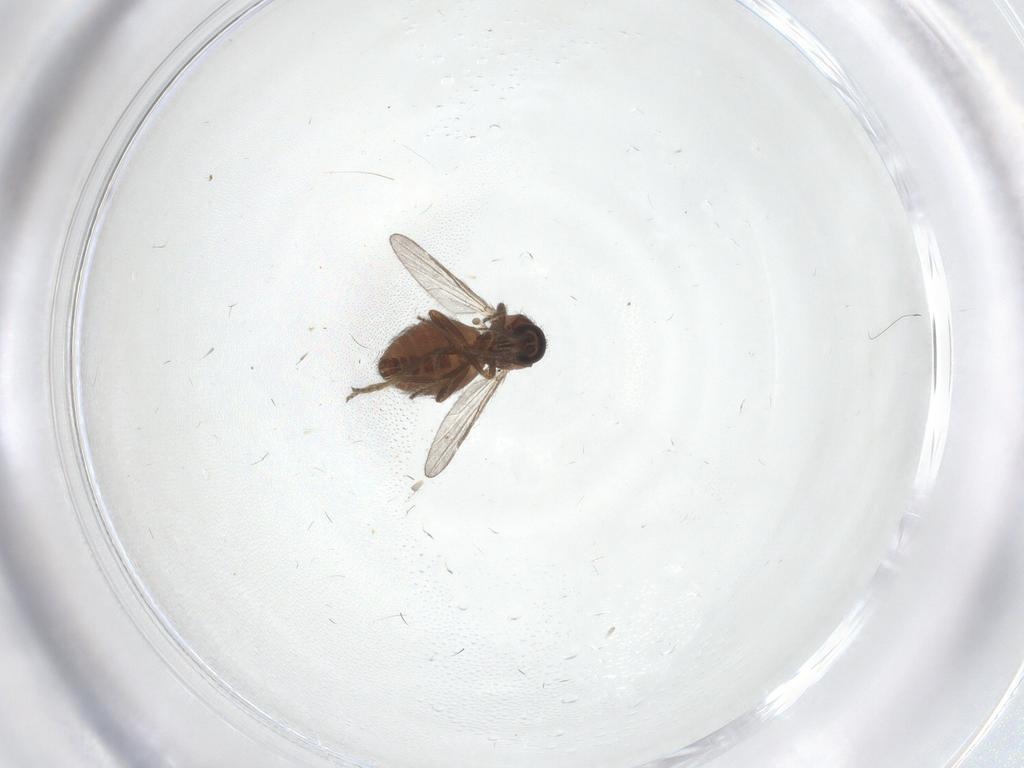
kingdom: Animalia
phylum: Arthropoda
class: Insecta
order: Diptera
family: Ceratopogonidae
